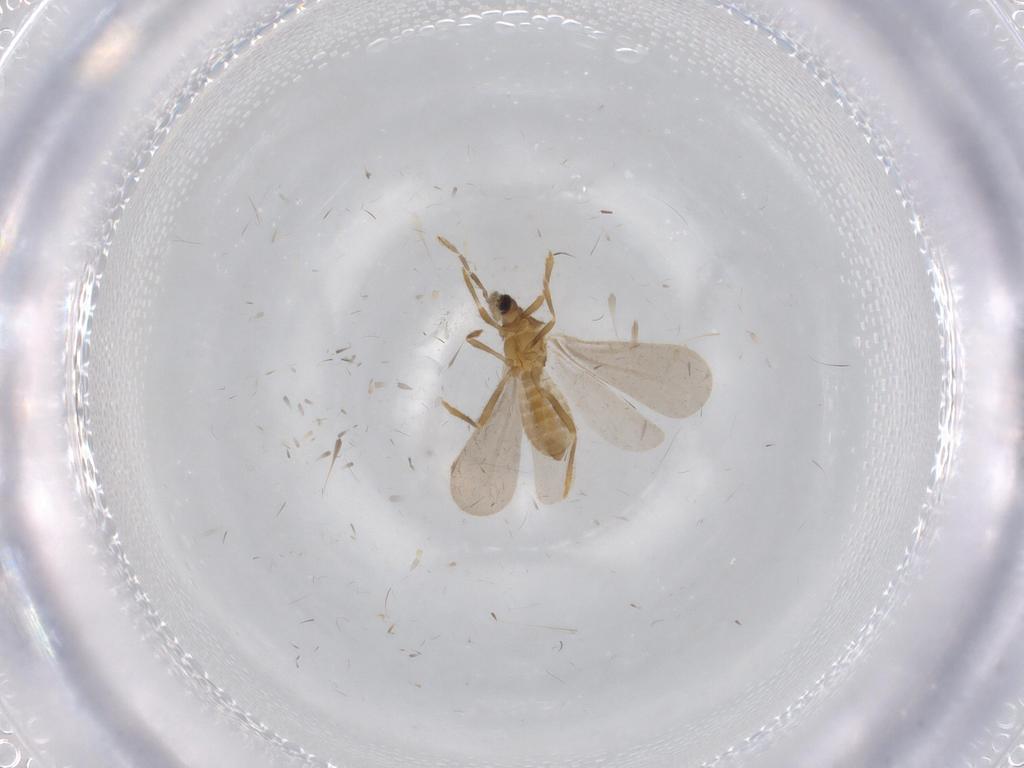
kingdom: Animalia
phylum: Arthropoda
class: Insecta
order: Hemiptera
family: Enicocephalidae
